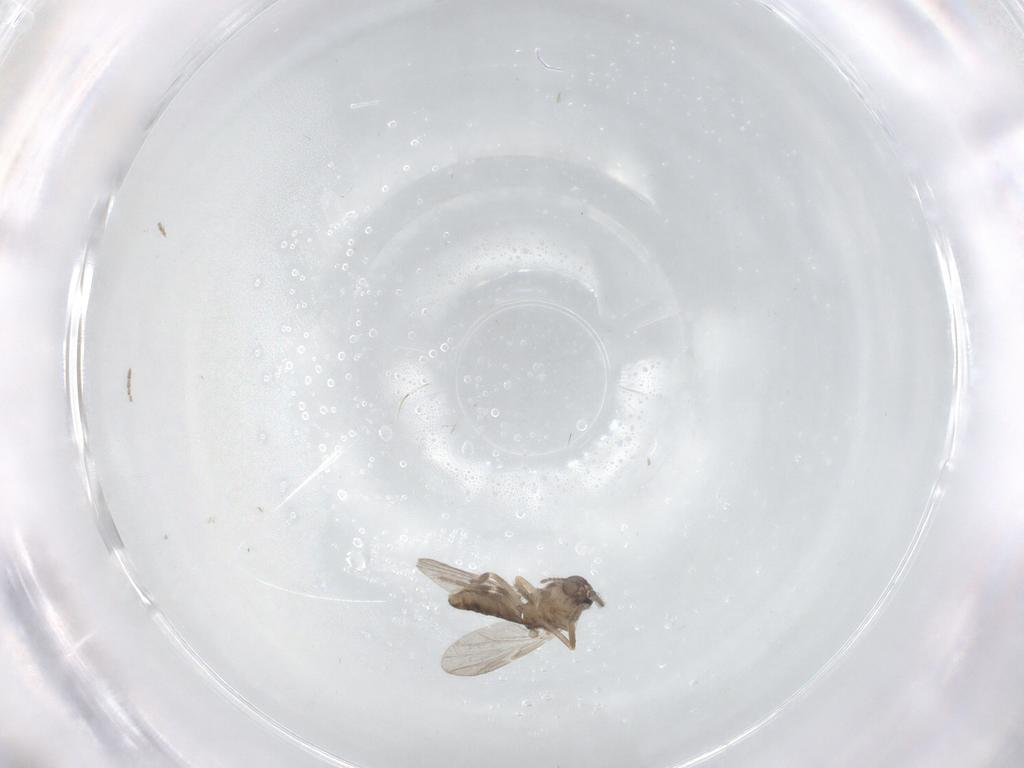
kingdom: Animalia
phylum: Arthropoda
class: Insecta
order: Diptera
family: Ceratopogonidae
